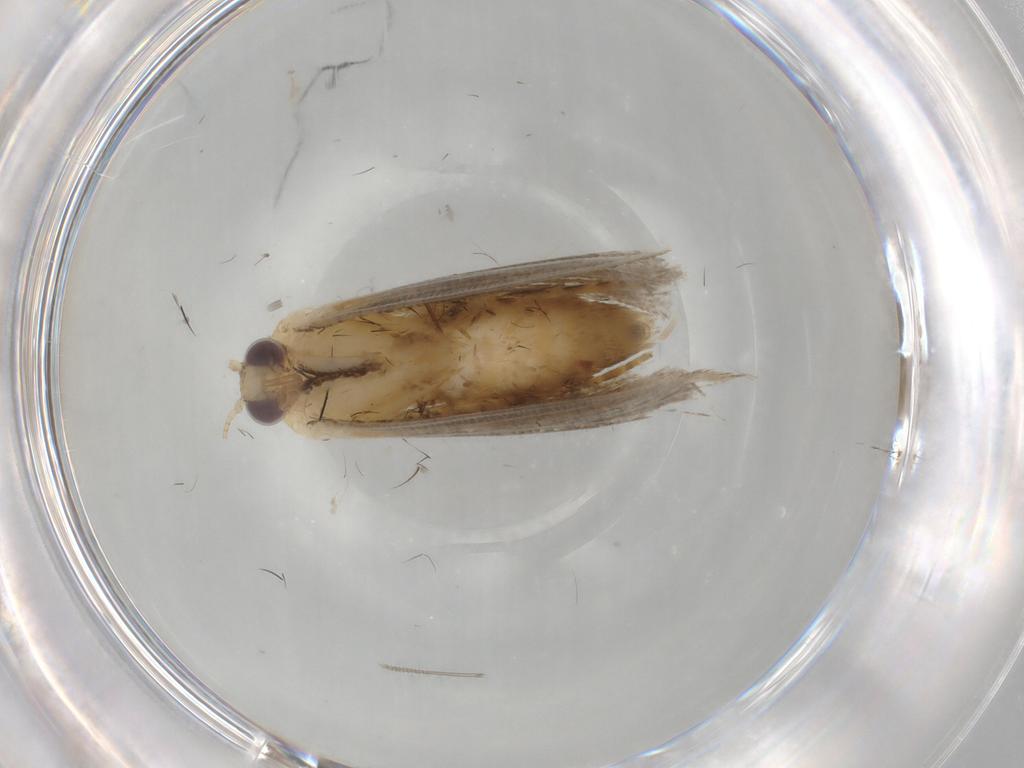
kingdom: Animalia
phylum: Arthropoda
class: Insecta
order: Lepidoptera
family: Erebidae
